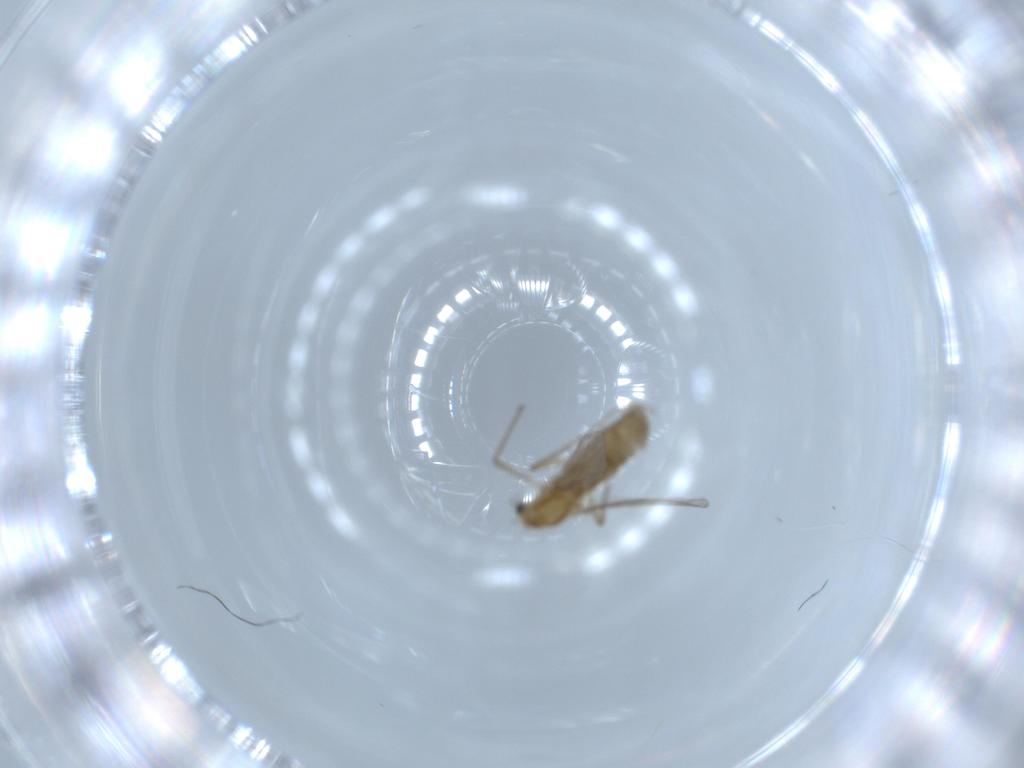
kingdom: Animalia
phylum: Arthropoda
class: Insecta
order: Diptera
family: Chironomidae
